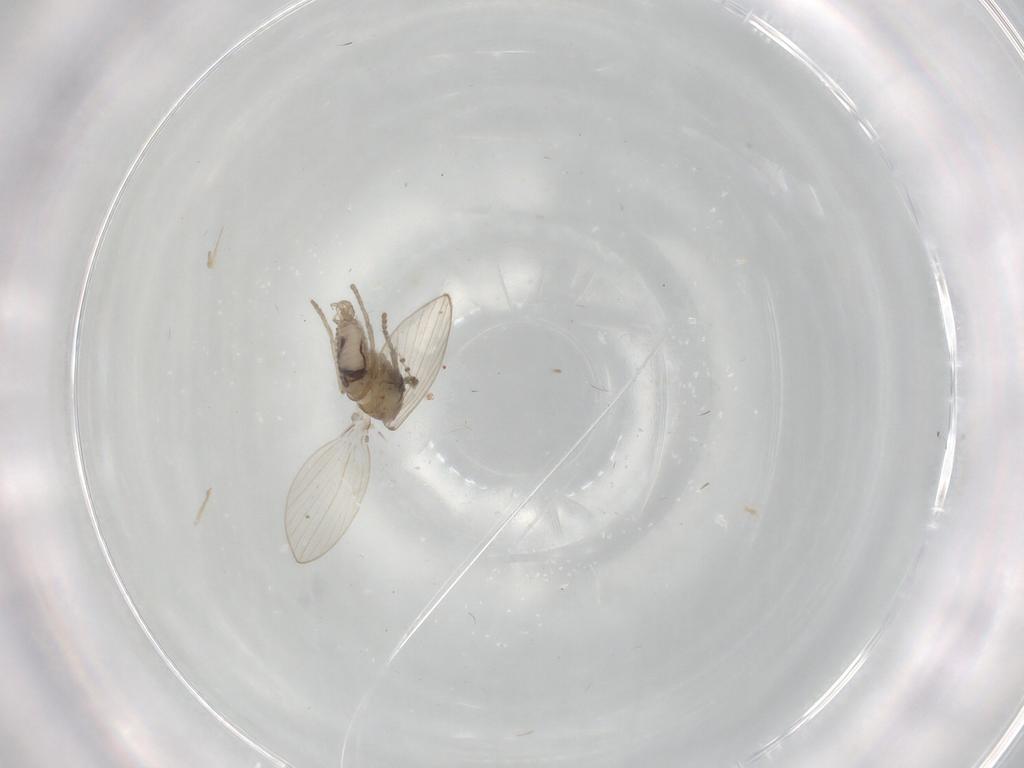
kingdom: Animalia
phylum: Arthropoda
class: Insecta
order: Diptera
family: Psychodidae
